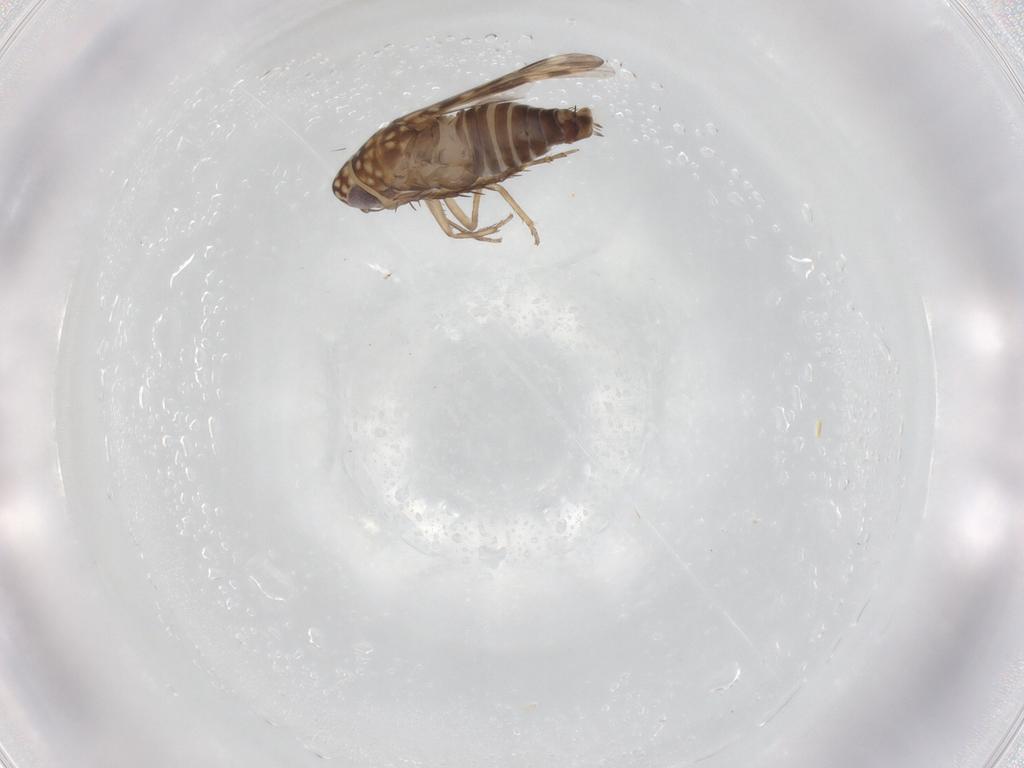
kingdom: Animalia
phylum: Arthropoda
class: Insecta
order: Hemiptera
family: Cicadellidae
